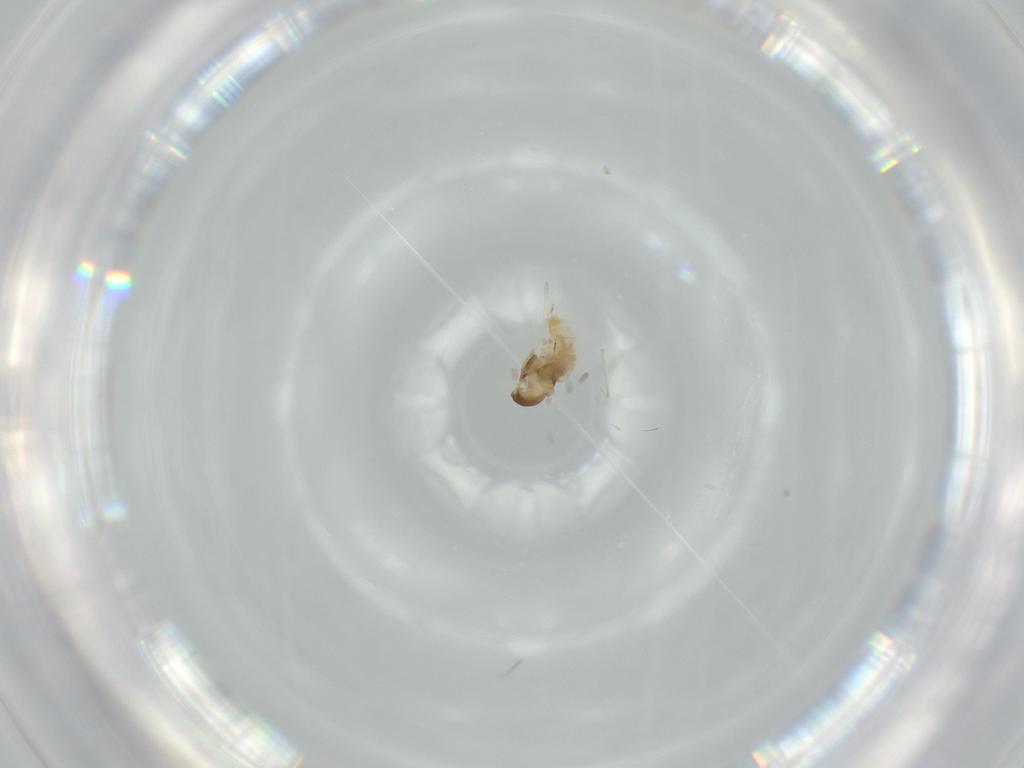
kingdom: Animalia
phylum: Arthropoda
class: Insecta
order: Diptera
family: Cecidomyiidae
